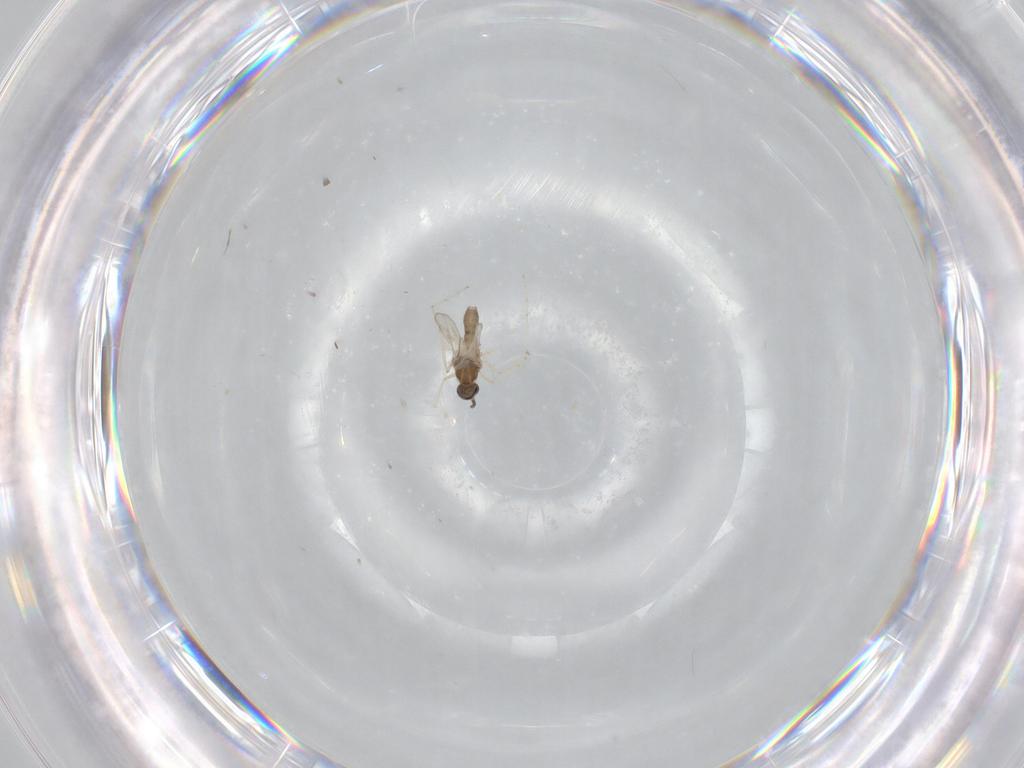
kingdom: Animalia
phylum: Arthropoda
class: Insecta
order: Diptera
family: Cecidomyiidae
